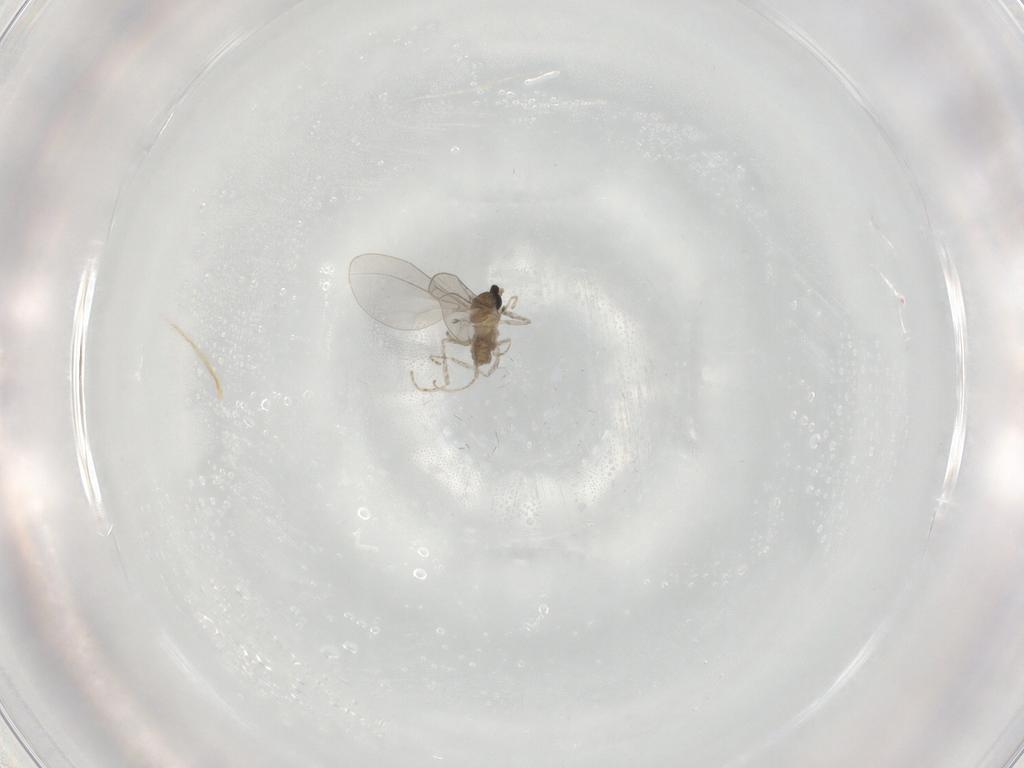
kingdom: Animalia
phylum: Arthropoda
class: Insecta
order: Diptera
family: Cecidomyiidae
